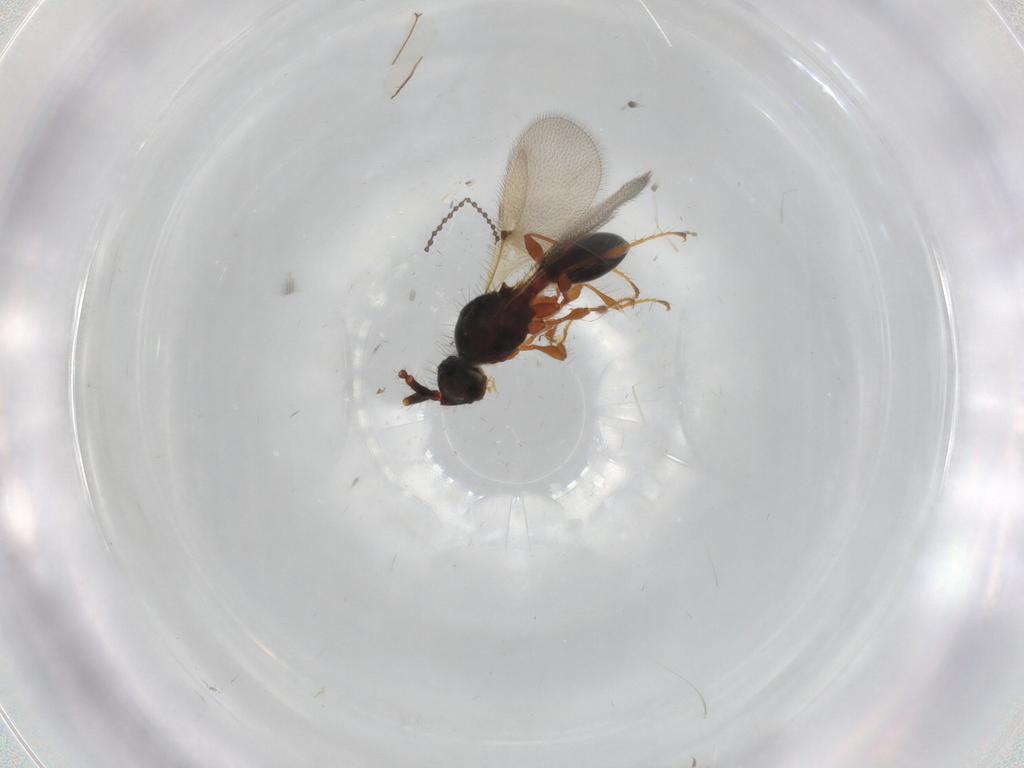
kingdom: Animalia
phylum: Arthropoda
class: Insecta
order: Hymenoptera
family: Diapriidae
